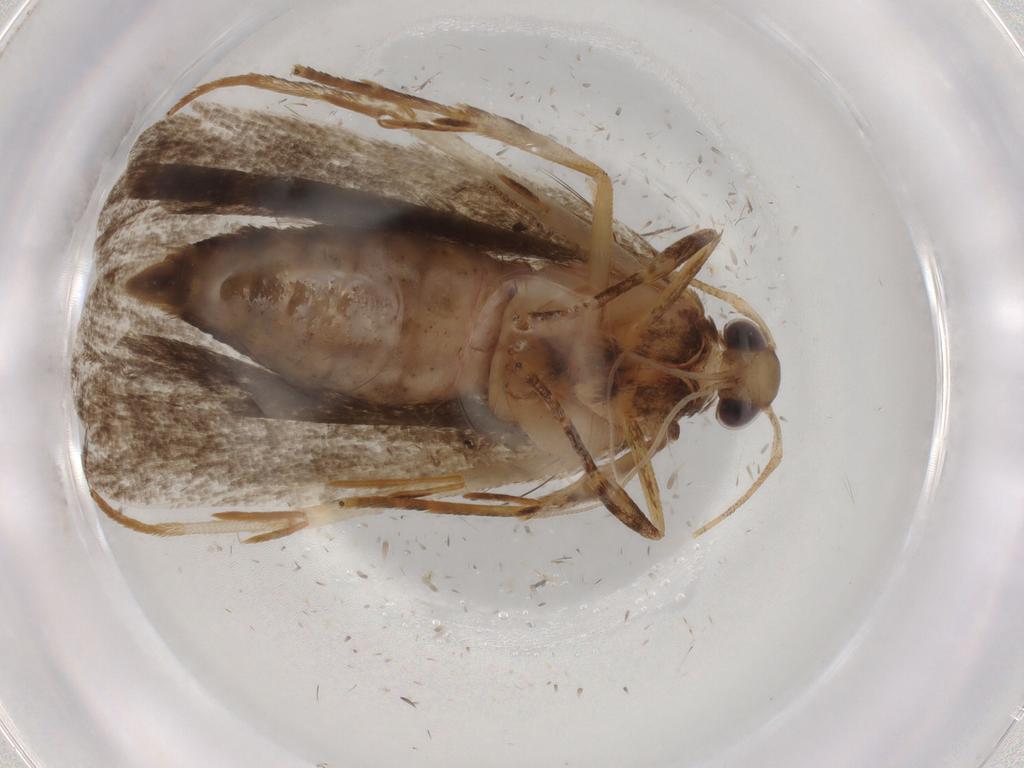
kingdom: Animalia
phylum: Arthropoda
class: Insecta
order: Lepidoptera
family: Autostichidae
